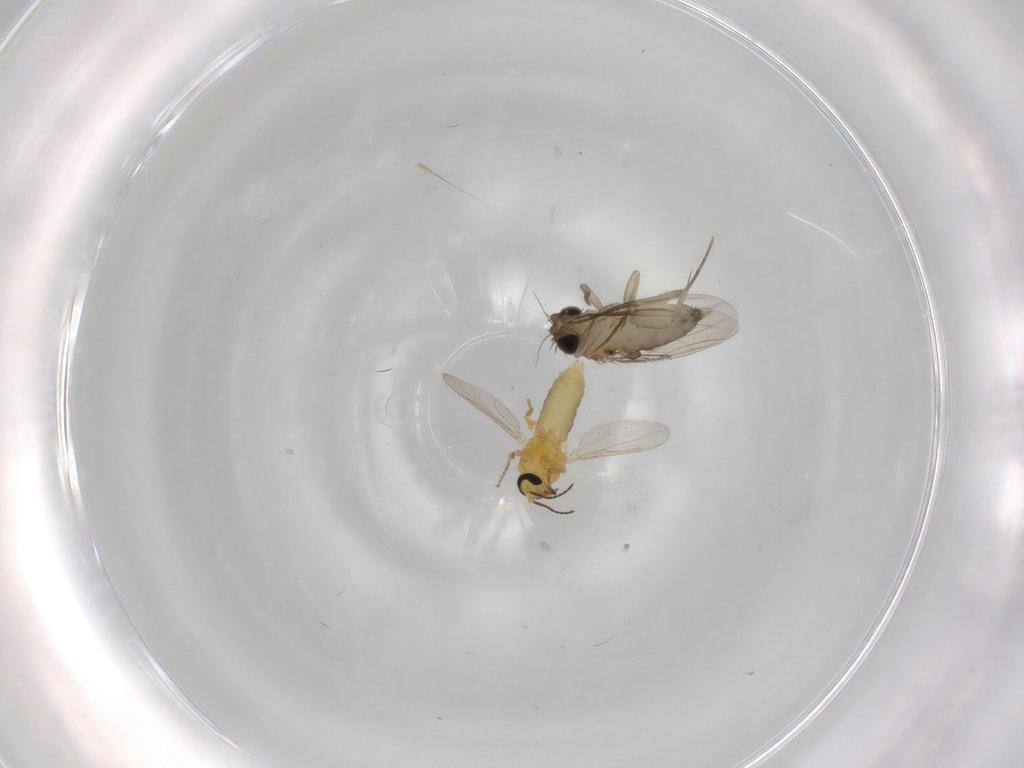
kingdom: Animalia
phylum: Arthropoda
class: Insecta
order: Diptera
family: Phoridae
